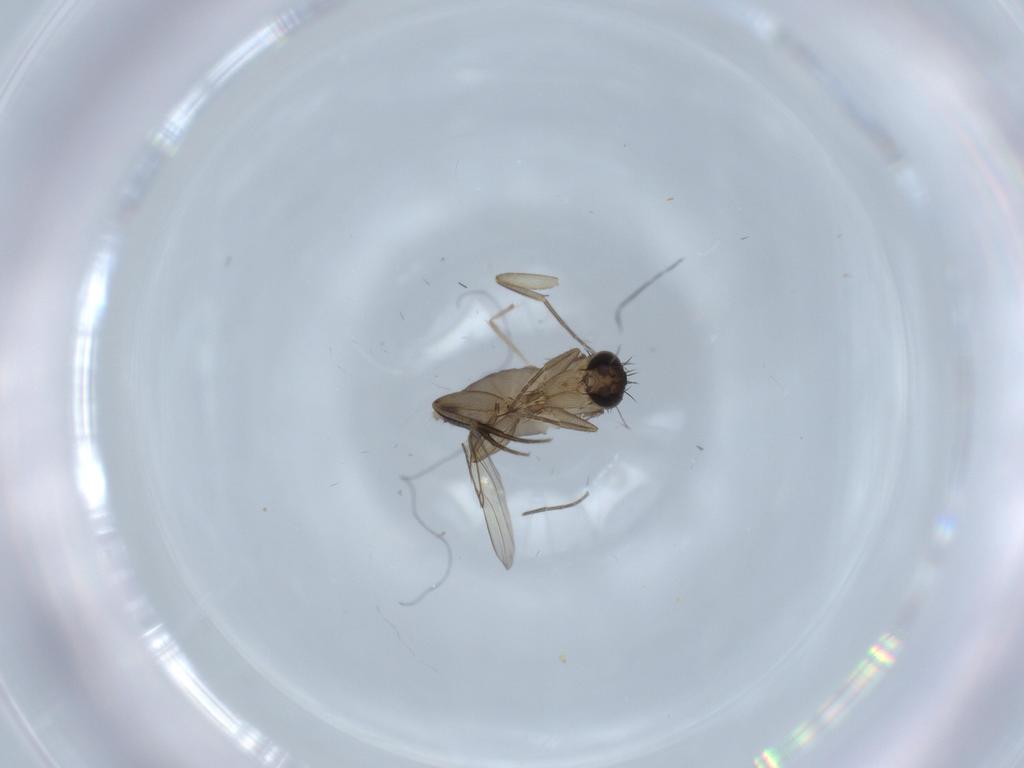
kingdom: Animalia
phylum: Arthropoda
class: Insecta
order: Diptera
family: Phoridae
